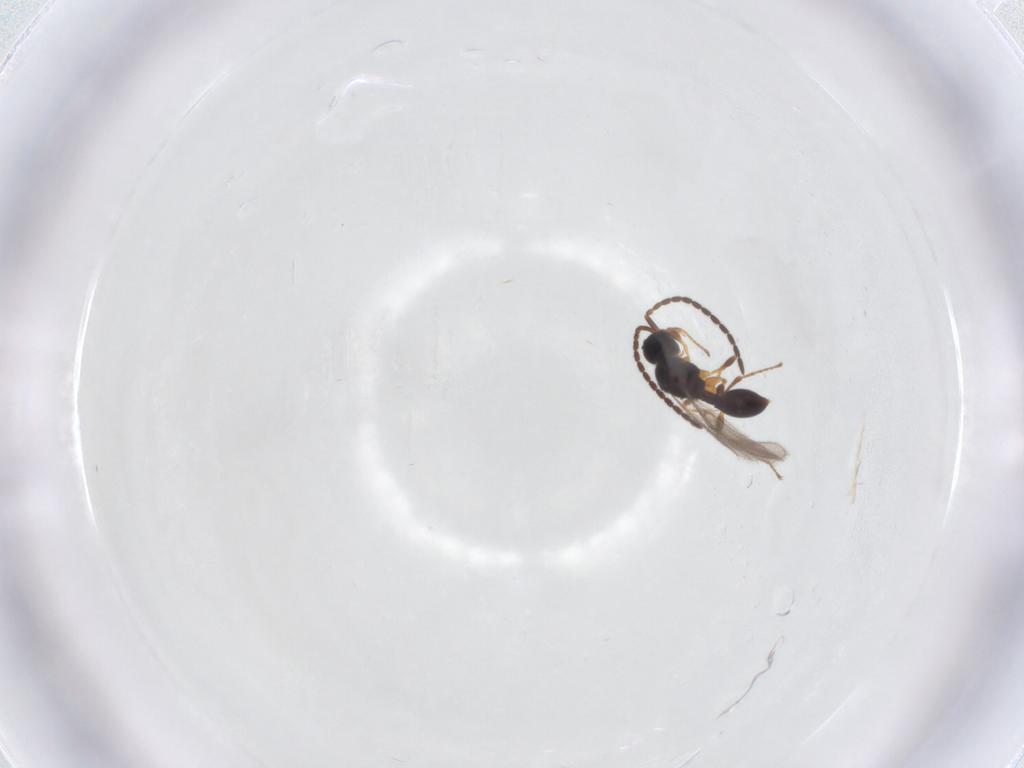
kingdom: Animalia
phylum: Arthropoda
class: Insecta
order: Hymenoptera
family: Diapriidae
